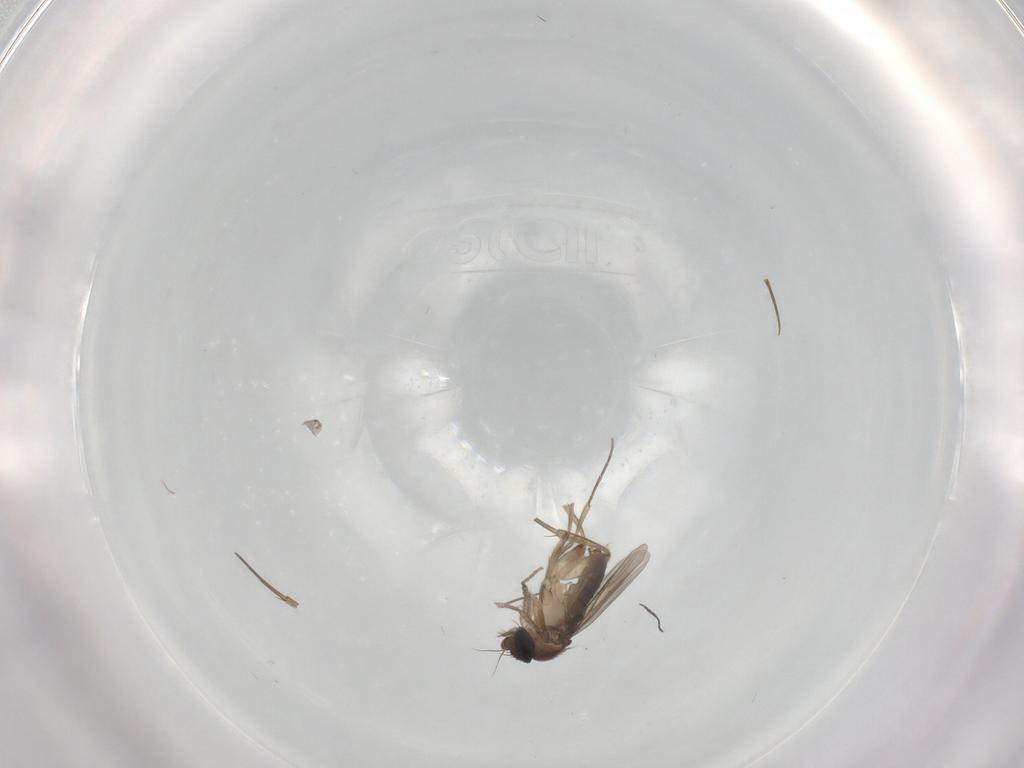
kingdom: Animalia
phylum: Arthropoda
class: Insecta
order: Diptera
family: Phoridae
